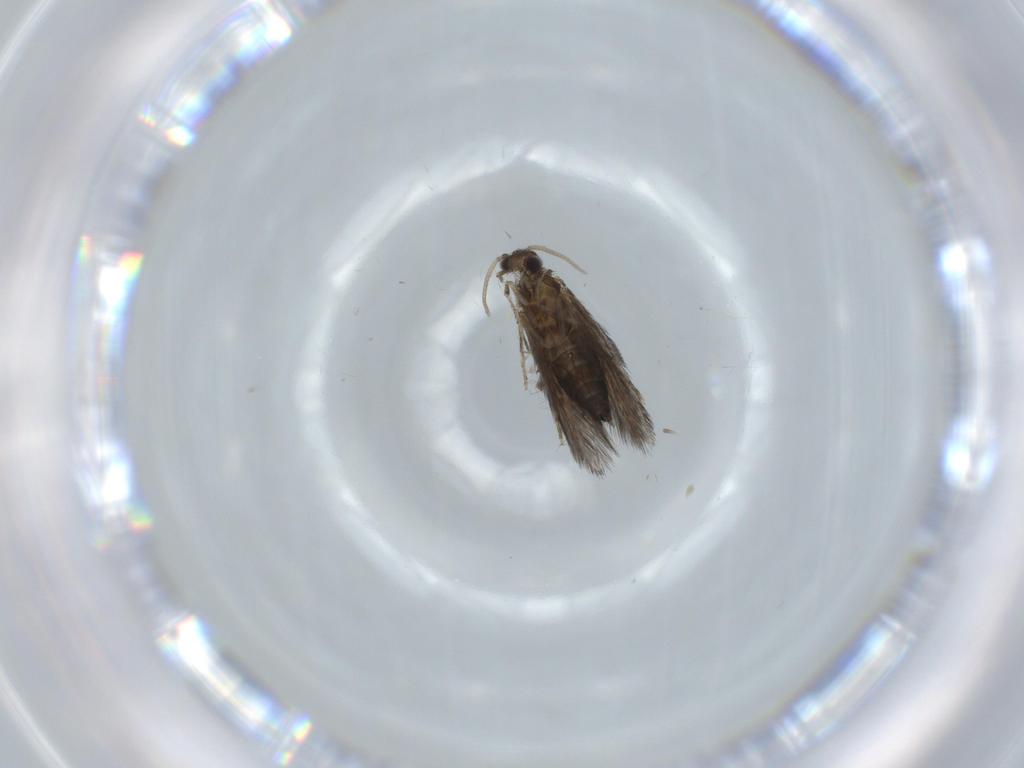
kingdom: Animalia
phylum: Arthropoda
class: Insecta
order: Trichoptera
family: Hydroptilidae
